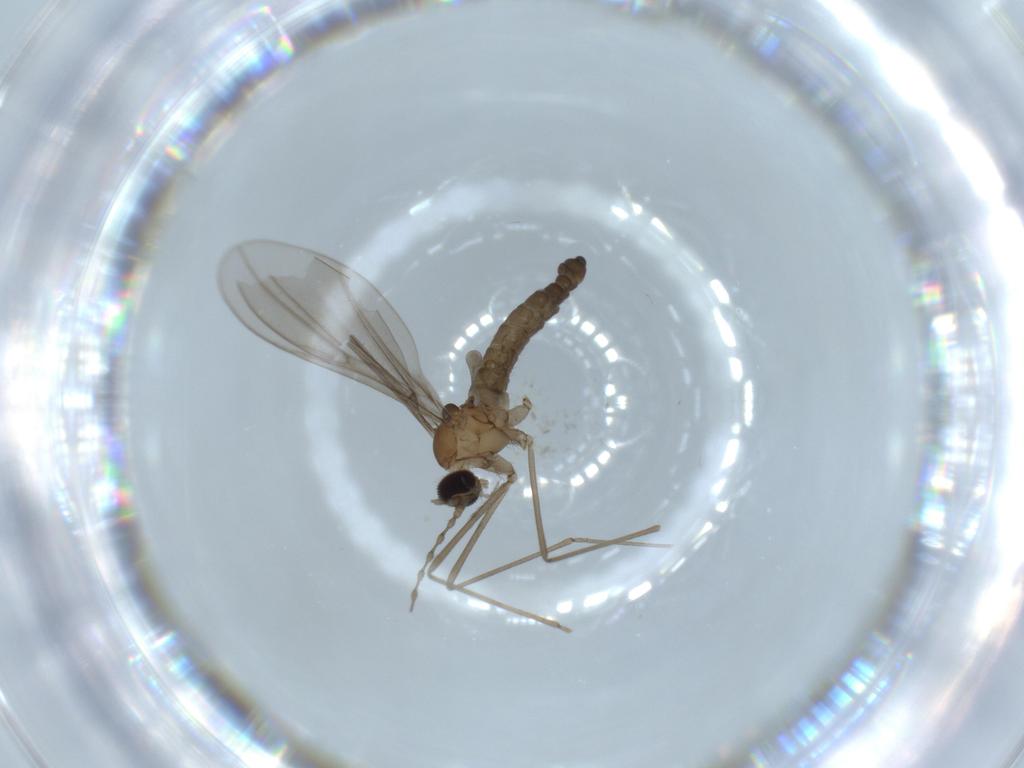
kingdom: Animalia
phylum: Arthropoda
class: Insecta
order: Diptera
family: Cecidomyiidae
